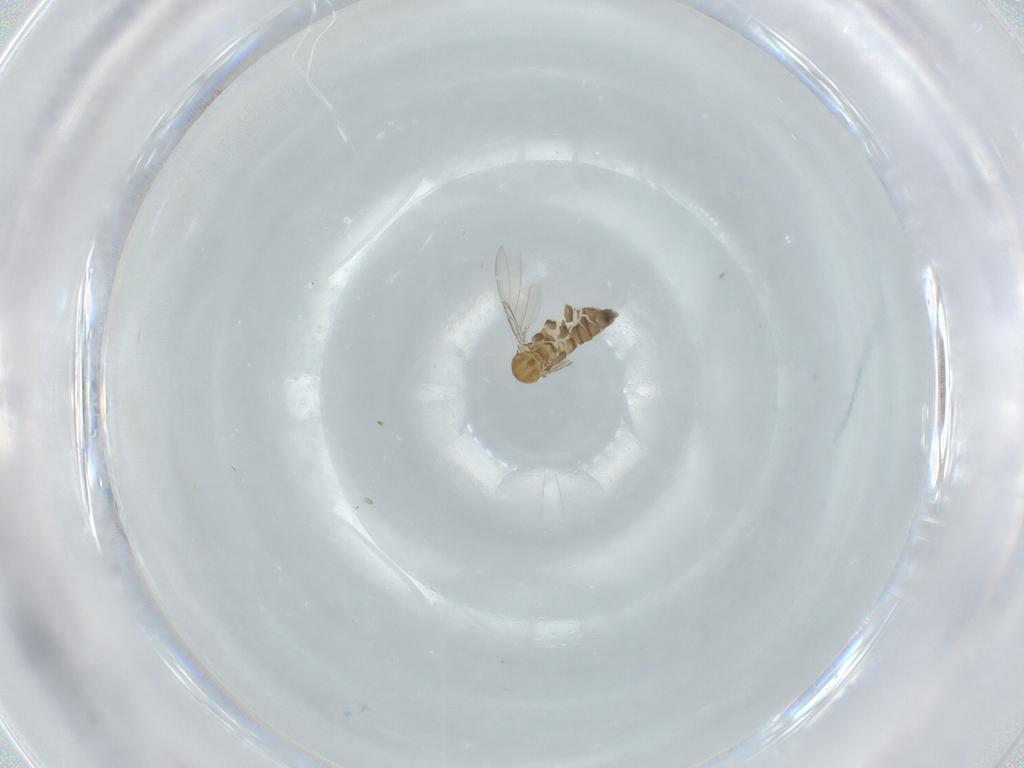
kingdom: Animalia
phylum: Arthropoda
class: Insecta
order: Diptera
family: Phoridae
